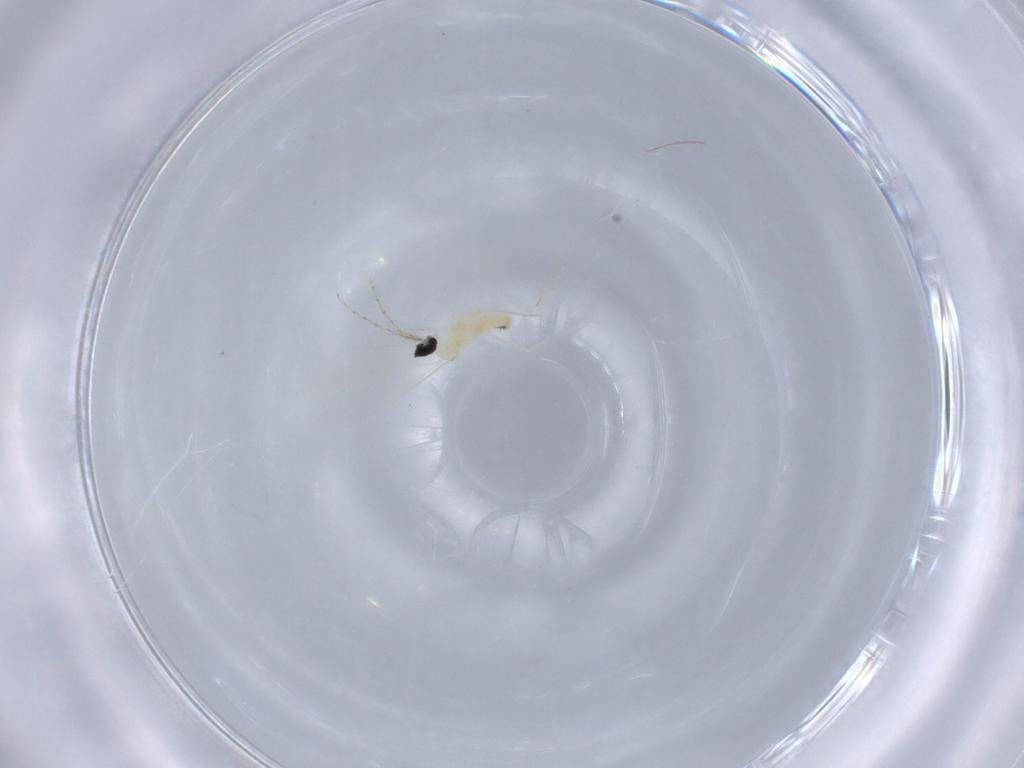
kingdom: Animalia
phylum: Arthropoda
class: Insecta
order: Diptera
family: Cecidomyiidae
